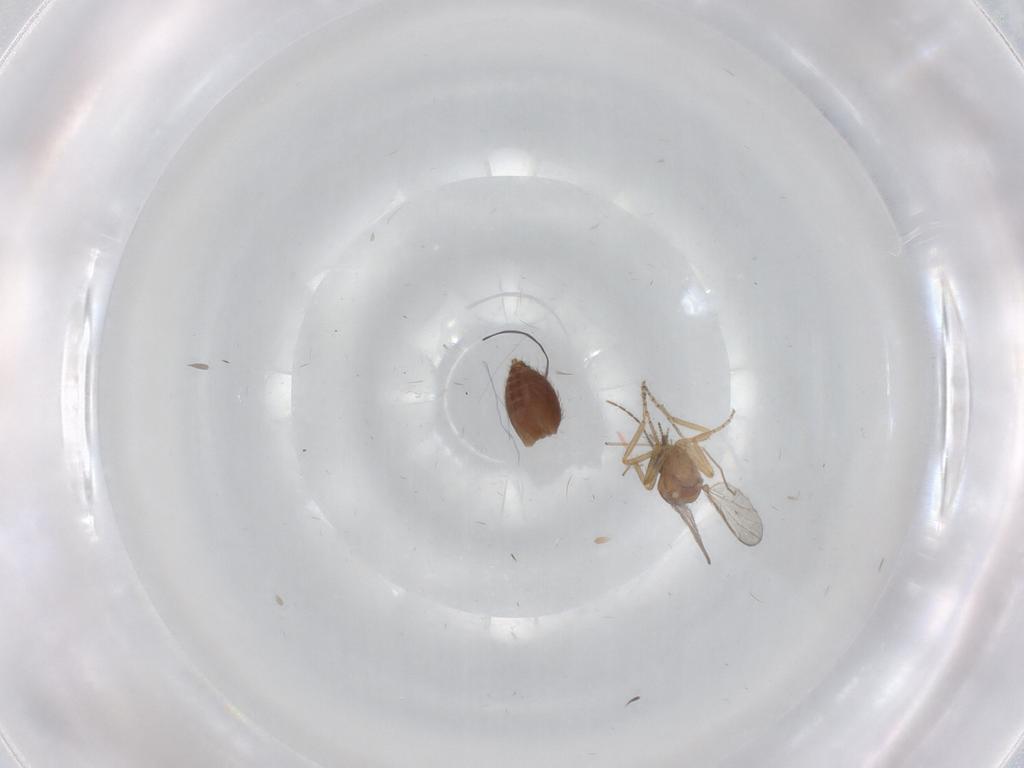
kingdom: Animalia
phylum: Arthropoda
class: Insecta
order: Diptera
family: Ceratopogonidae
